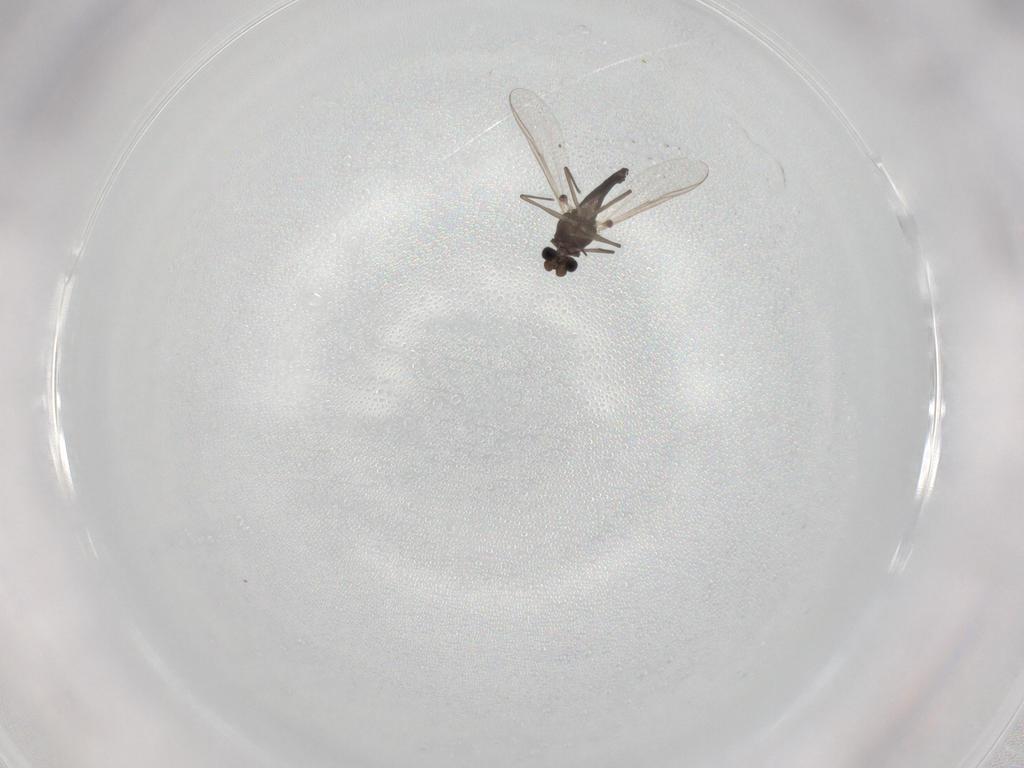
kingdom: Animalia
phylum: Arthropoda
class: Insecta
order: Diptera
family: Chironomidae
